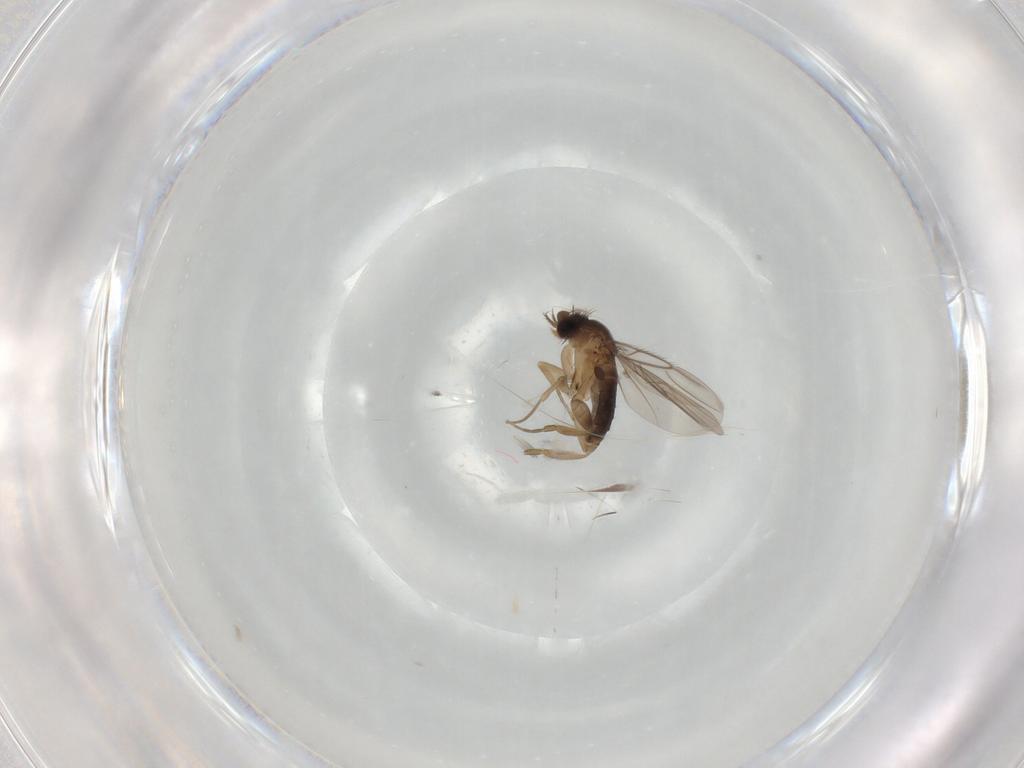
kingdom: Animalia
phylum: Arthropoda
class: Insecta
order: Diptera
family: Phoridae
